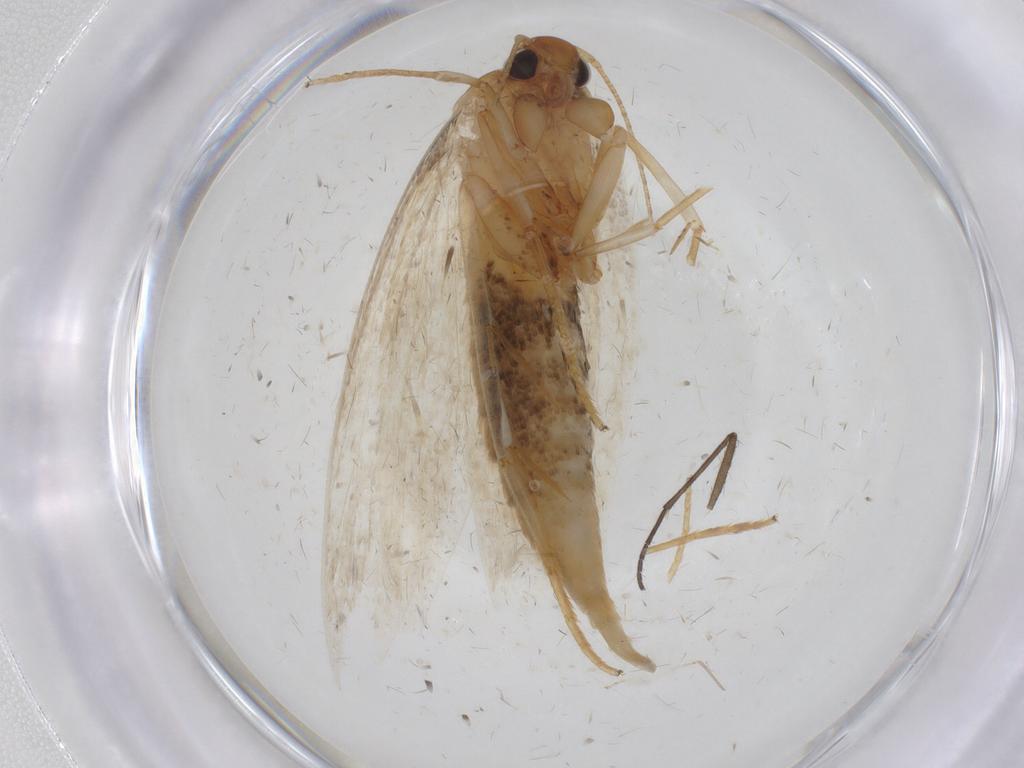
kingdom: Animalia
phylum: Arthropoda
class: Insecta
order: Lepidoptera
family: Oecophoridae
